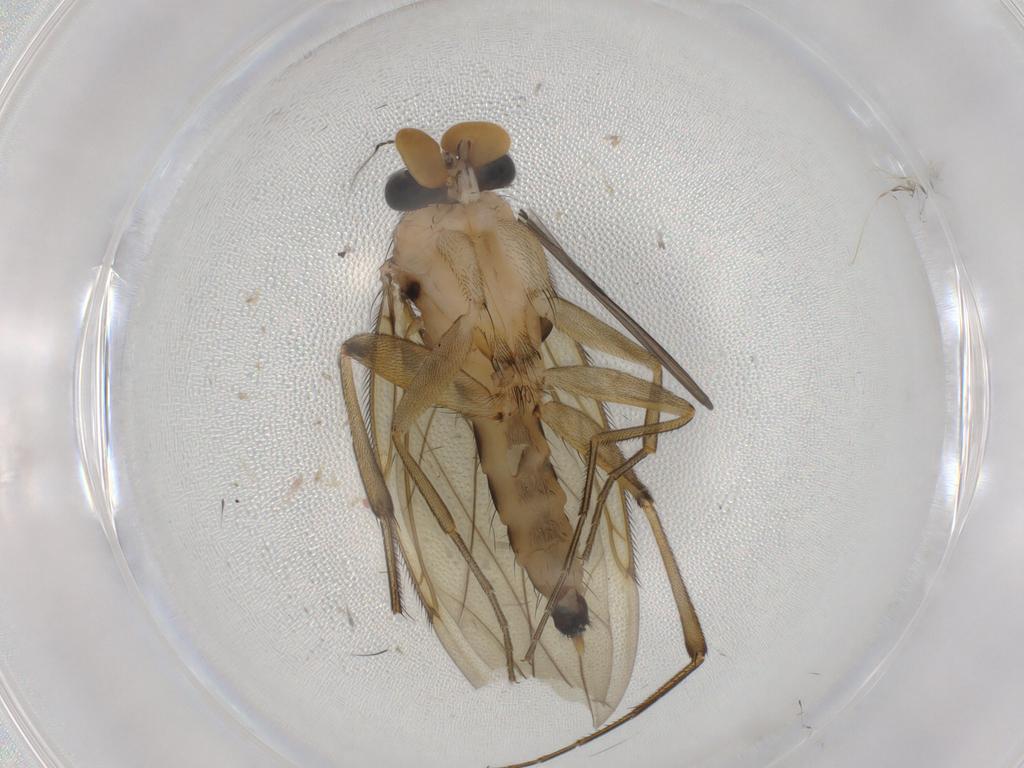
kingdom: Animalia
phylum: Arthropoda
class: Insecta
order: Diptera
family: Phoridae
